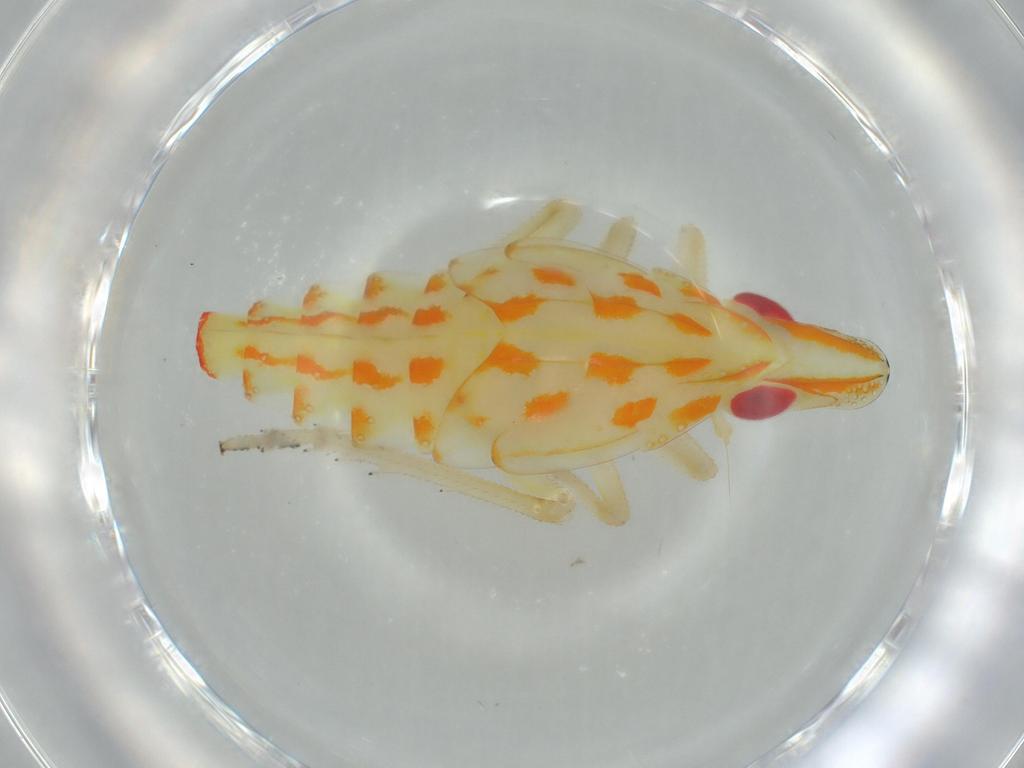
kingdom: Animalia
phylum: Arthropoda
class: Insecta
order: Hemiptera
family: Tropiduchidae
